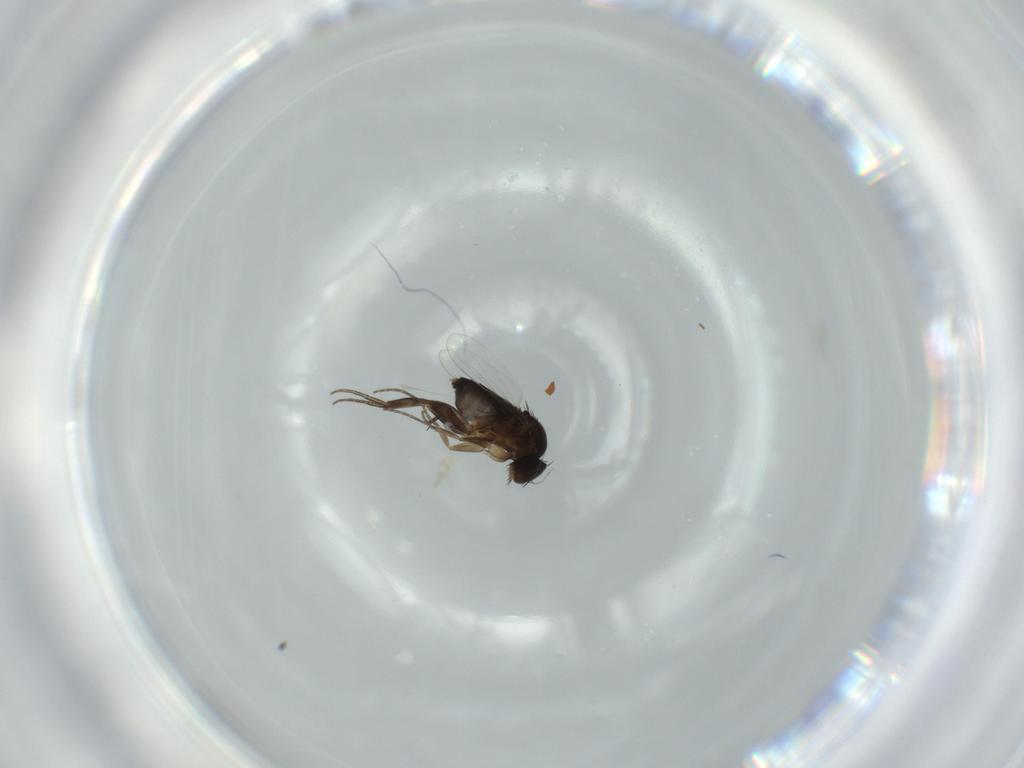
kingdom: Animalia
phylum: Arthropoda
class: Insecta
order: Diptera
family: Phoridae
